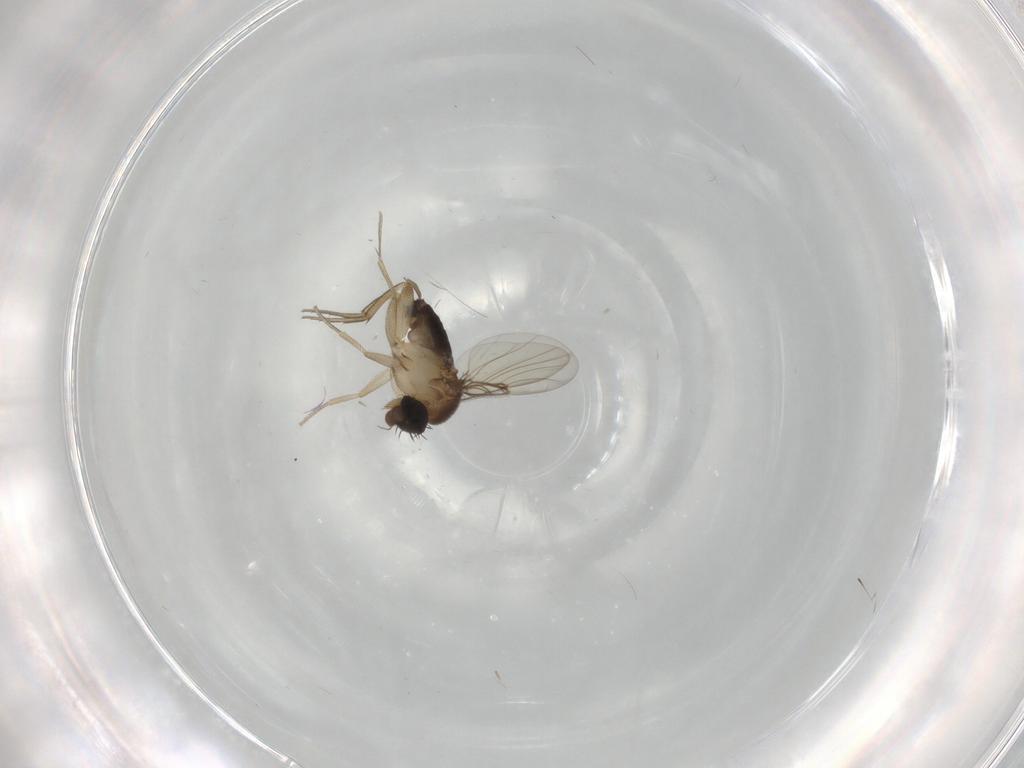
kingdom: Animalia
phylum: Arthropoda
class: Insecta
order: Diptera
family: Phoridae
